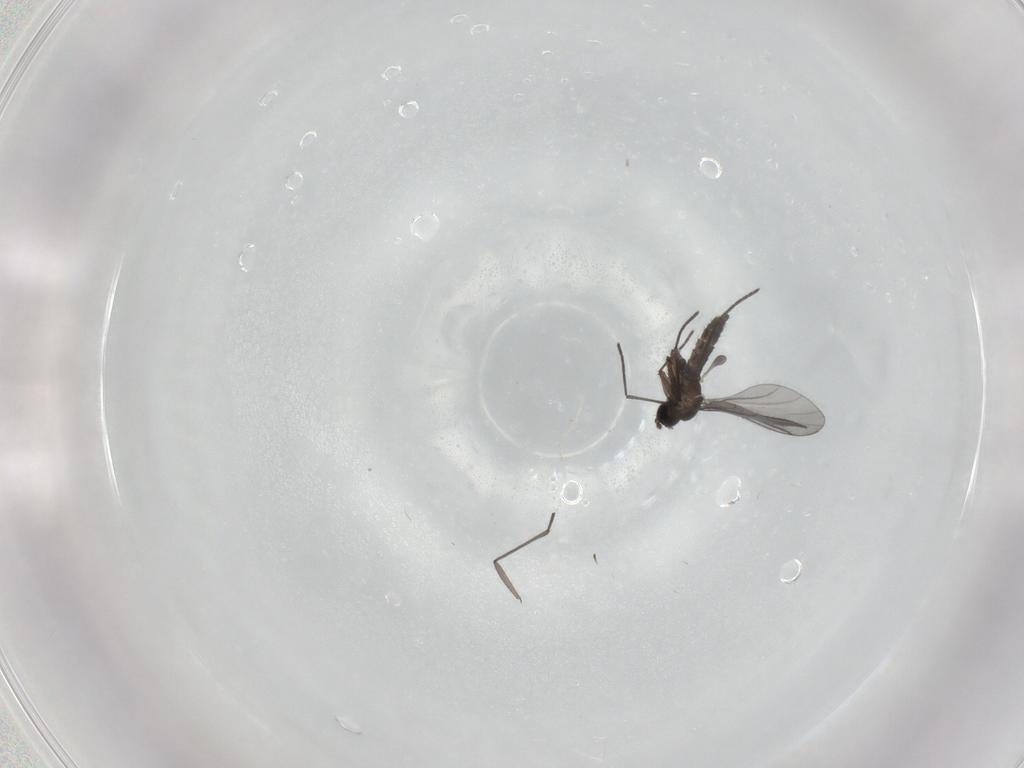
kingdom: Animalia
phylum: Arthropoda
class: Insecta
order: Diptera
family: Sciaridae
